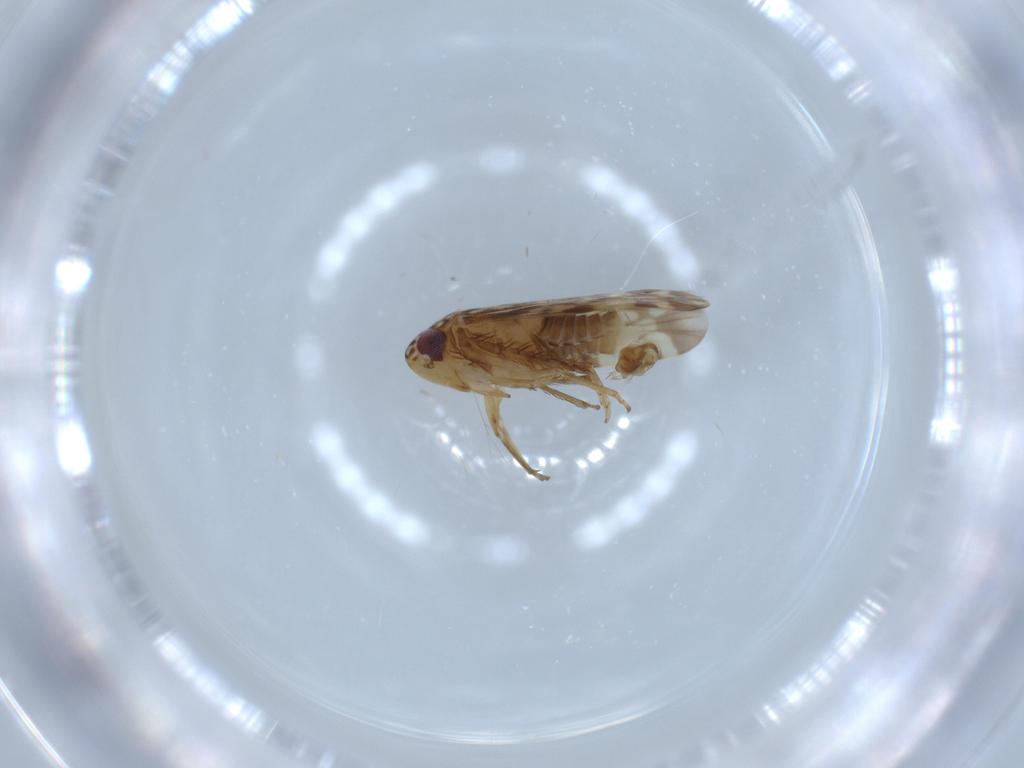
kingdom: Animalia
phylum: Arthropoda
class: Insecta
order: Hemiptera
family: Cicadellidae
